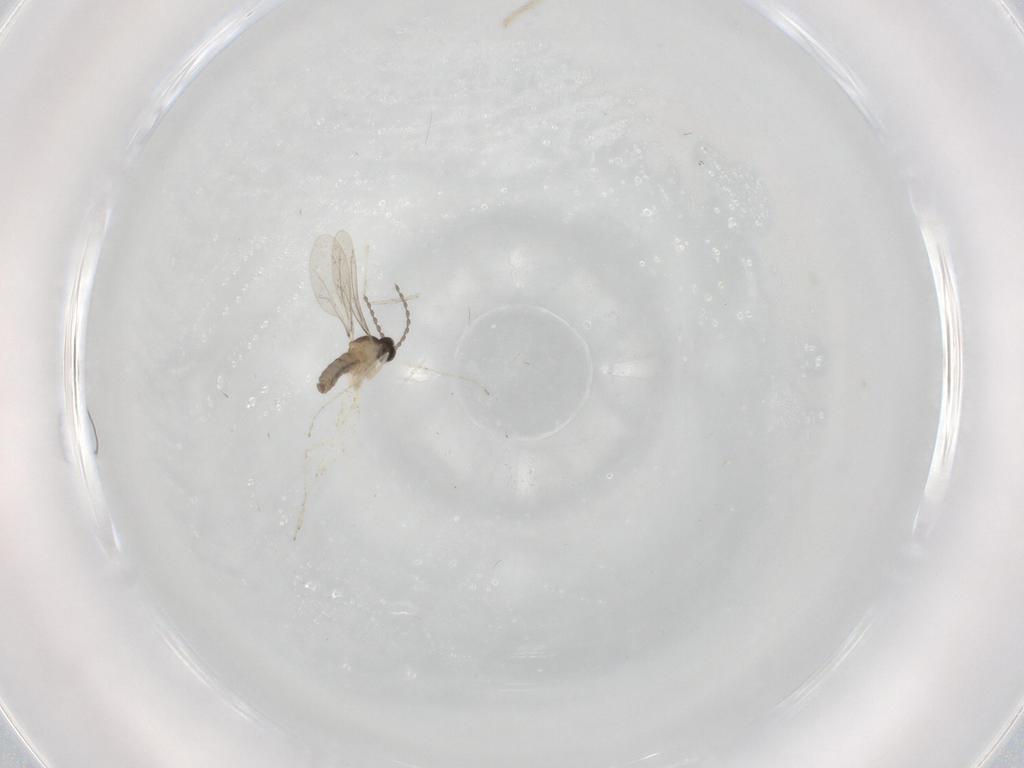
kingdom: Animalia
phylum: Arthropoda
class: Insecta
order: Diptera
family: Cecidomyiidae
